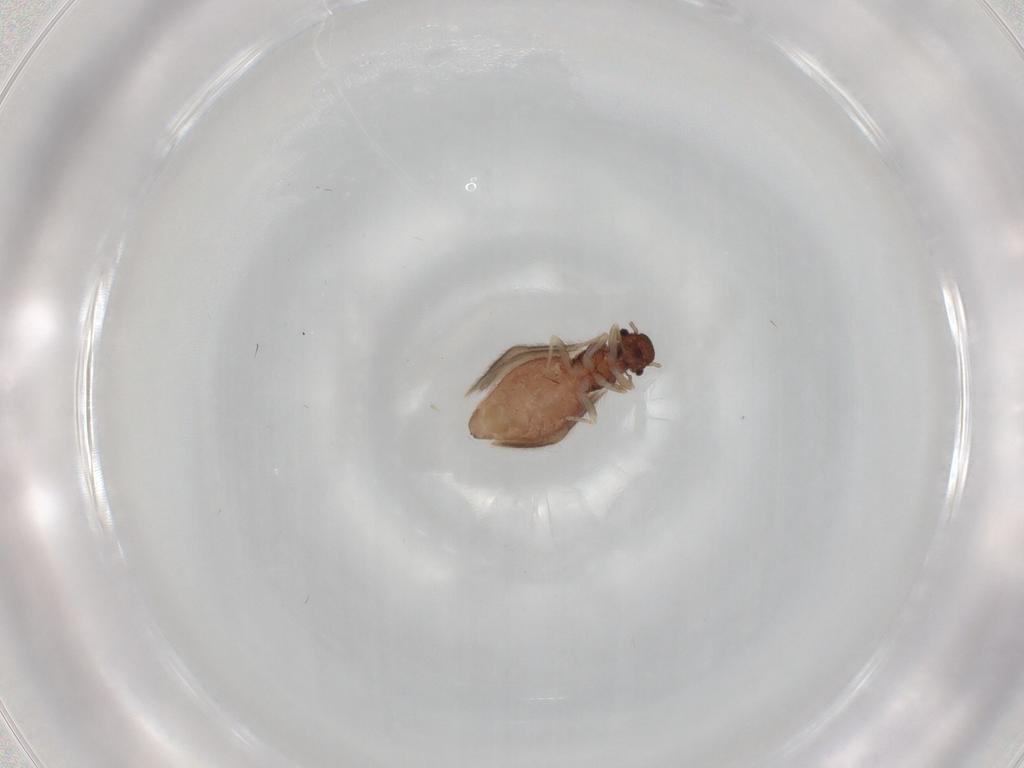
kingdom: Animalia
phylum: Arthropoda
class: Insecta
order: Psocodea
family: Archipsocidae
